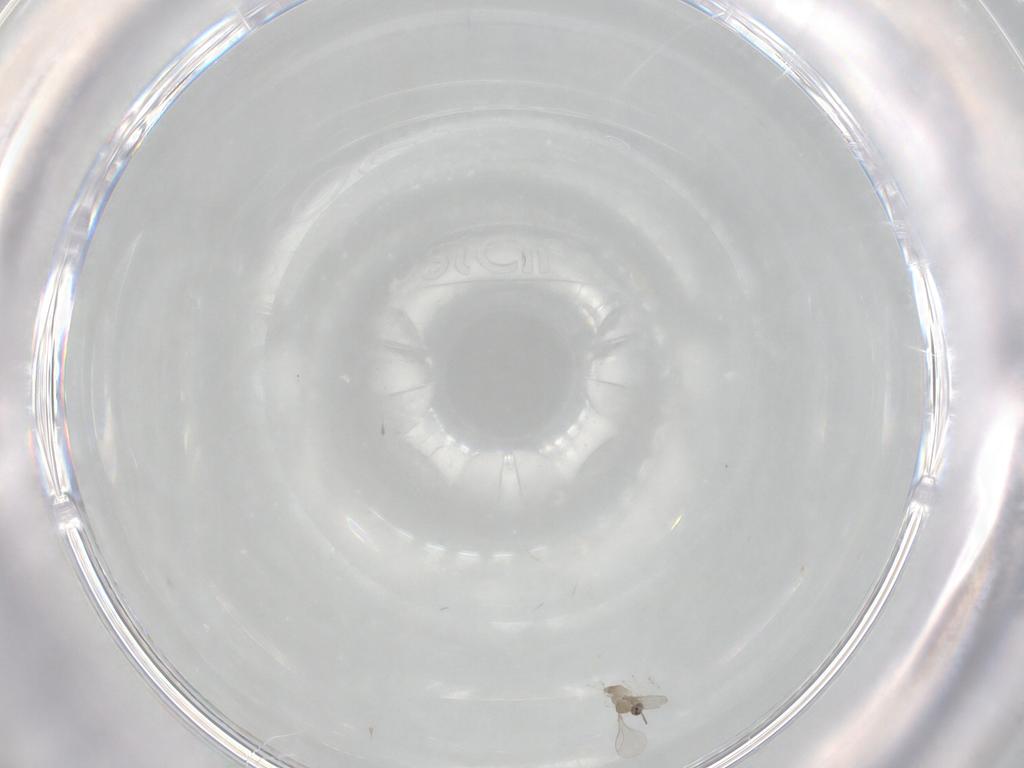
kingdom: Animalia
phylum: Arthropoda
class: Insecta
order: Diptera
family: Cecidomyiidae
